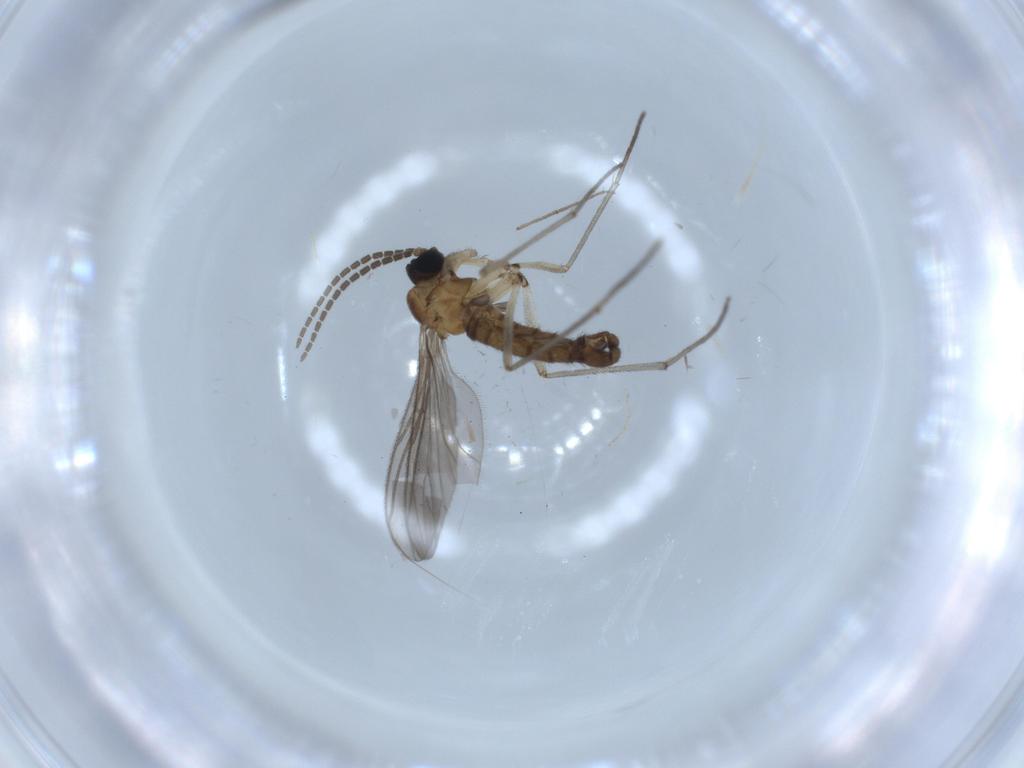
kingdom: Animalia
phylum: Arthropoda
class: Insecta
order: Diptera
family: Sciaridae
